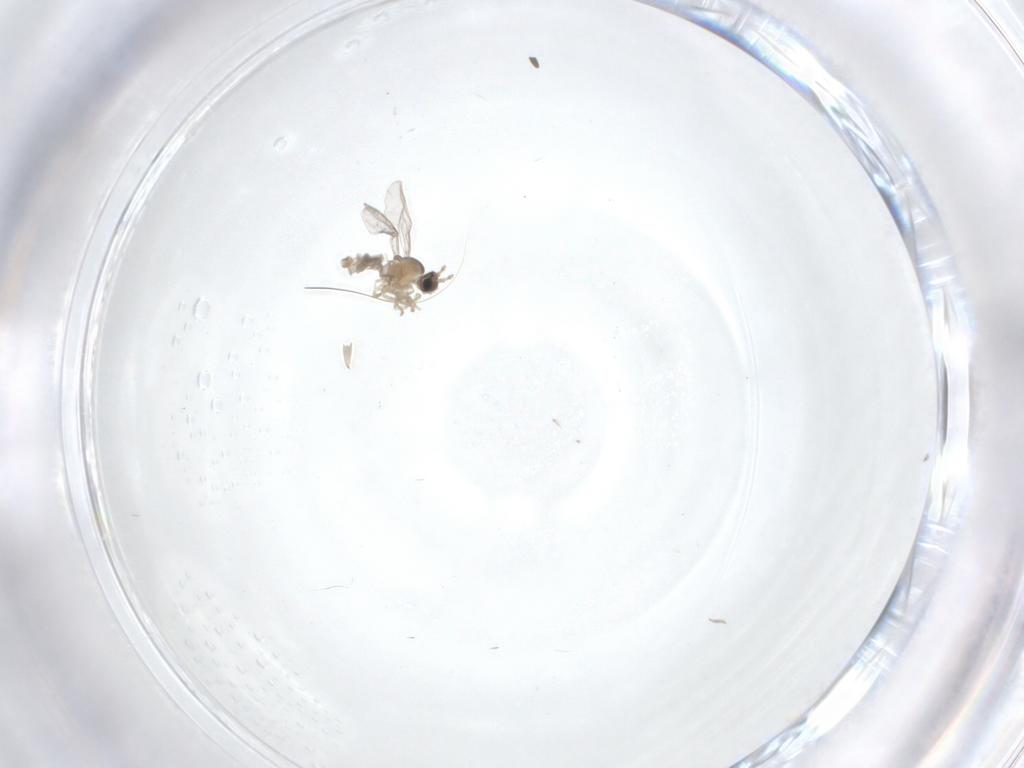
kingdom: Animalia
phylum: Arthropoda
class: Insecta
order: Diptera
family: Cecidomyiidae
